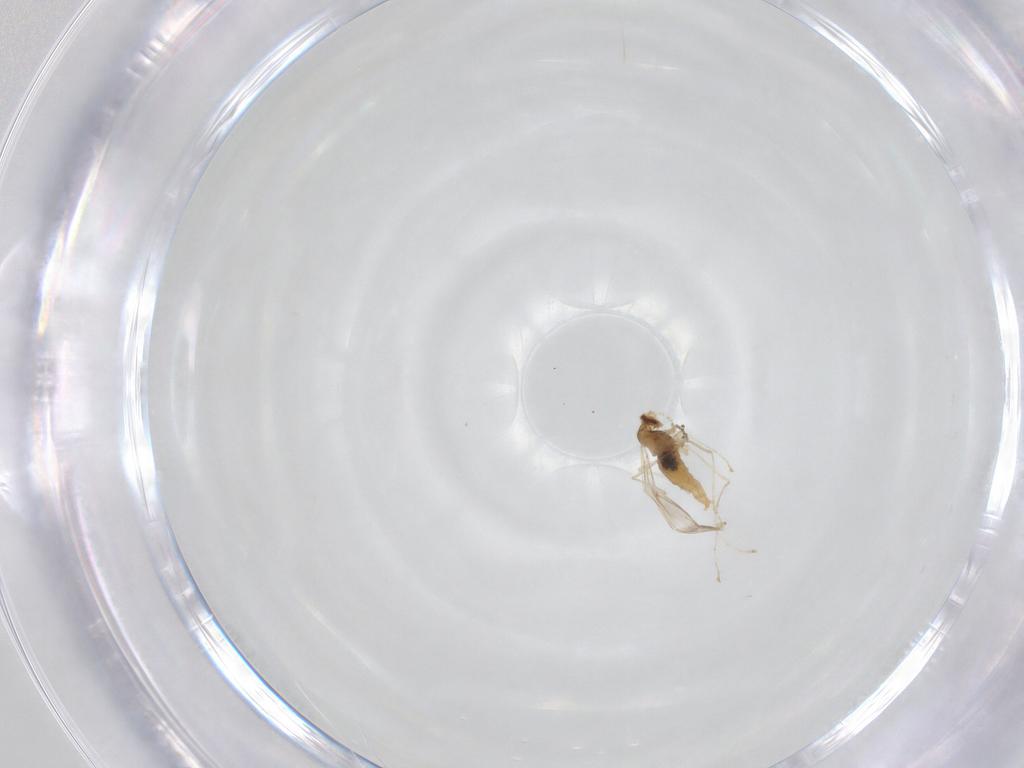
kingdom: Animalia
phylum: Arthropoda
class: Insecta
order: Diptera
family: Cecidomyiidae
